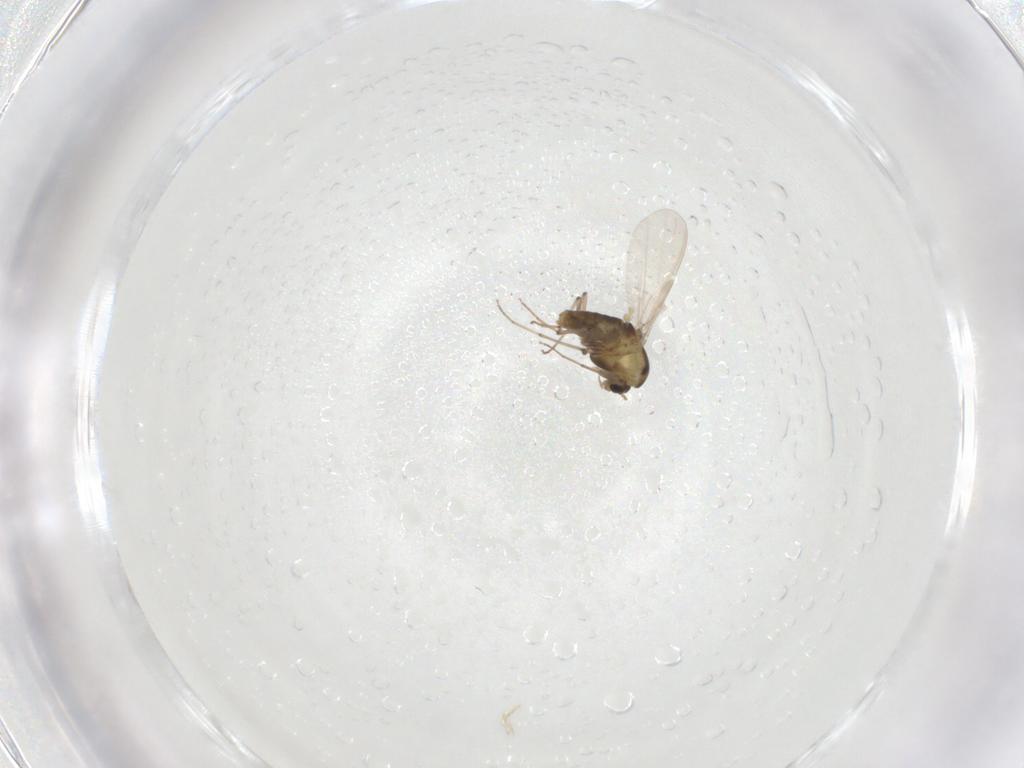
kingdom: Animalia
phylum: Arthropoda
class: Insecta
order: Diptera
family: Chironomidae
